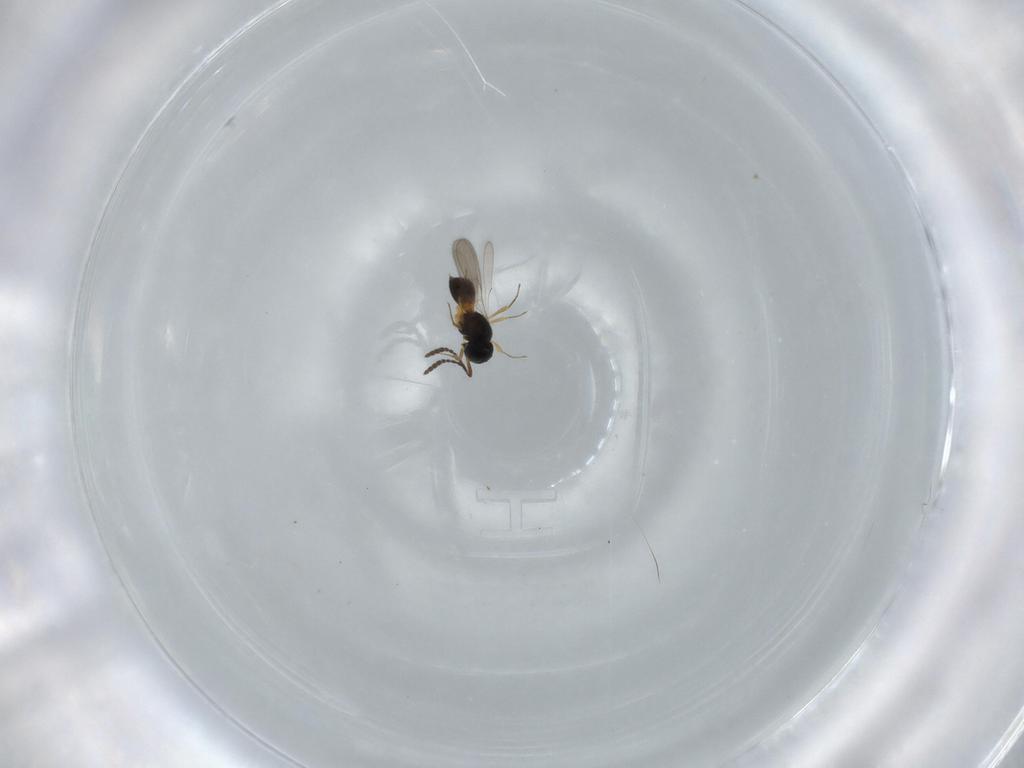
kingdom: Animalia
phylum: Arthropoda
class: Insecta
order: Hymenoptera
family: Scelionidae
